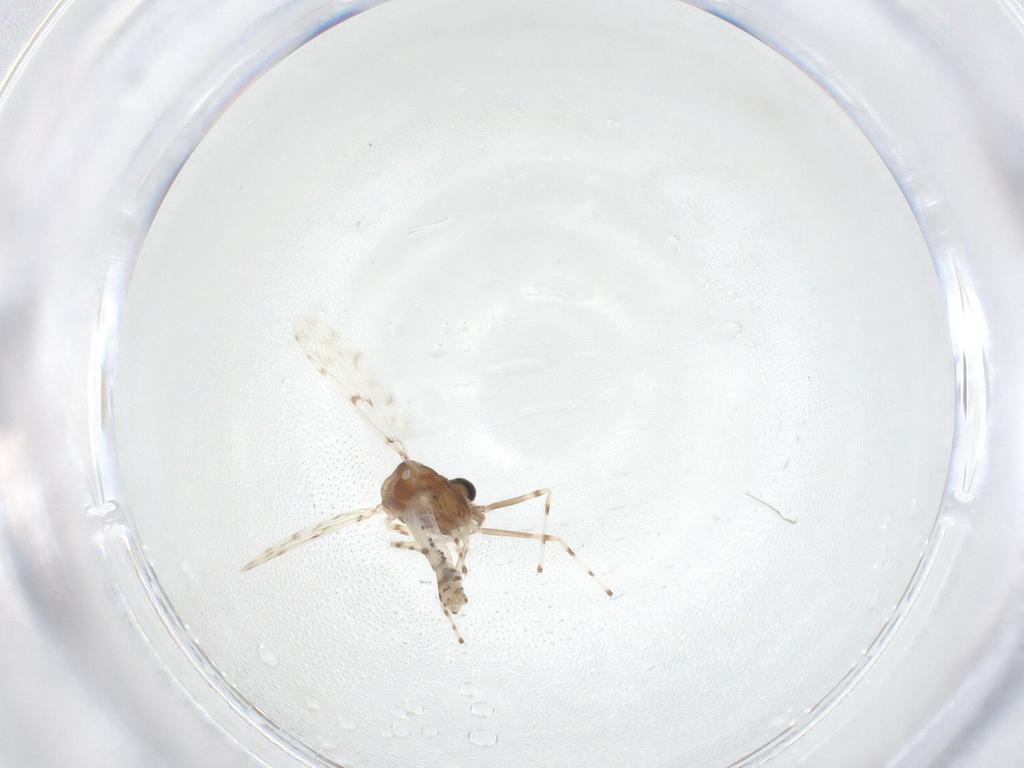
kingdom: Animalia
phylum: Arthropoda
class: Insecta
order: Diptera
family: Chironomidae
